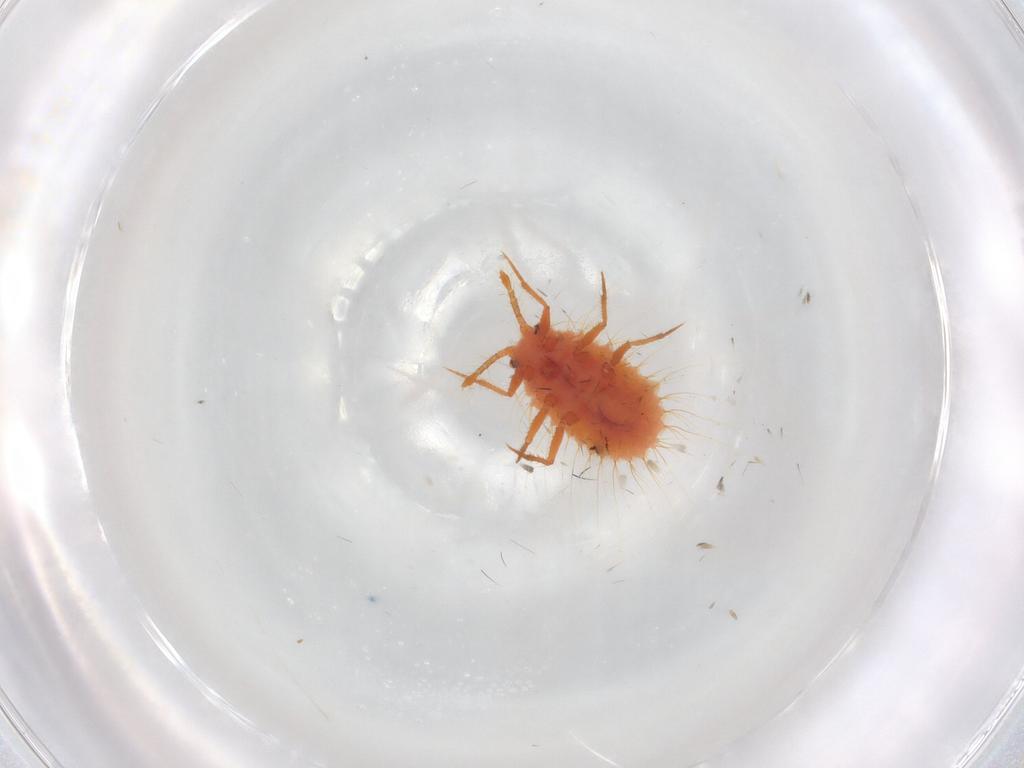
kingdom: Animalia
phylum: Arthropoda
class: Insecta
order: Hemiptera
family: Coccoidea_incertae_sedis
